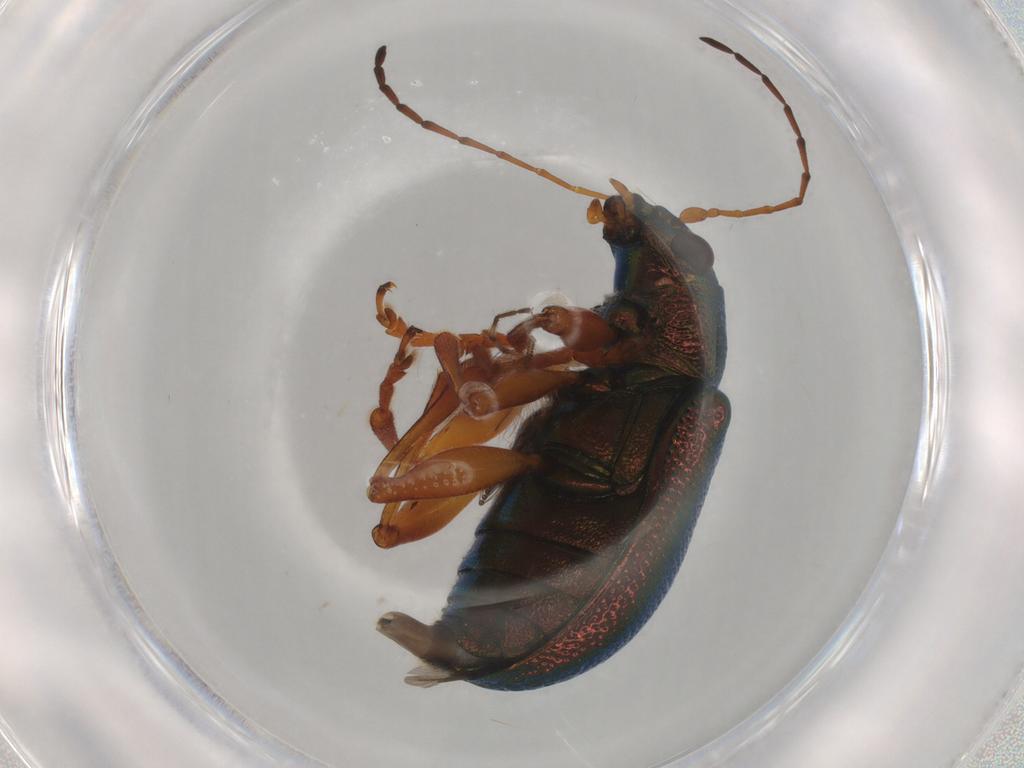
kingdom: Animalia
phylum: Arthropoda
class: Insecta
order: Coleoptera
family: Chrysomelidae
